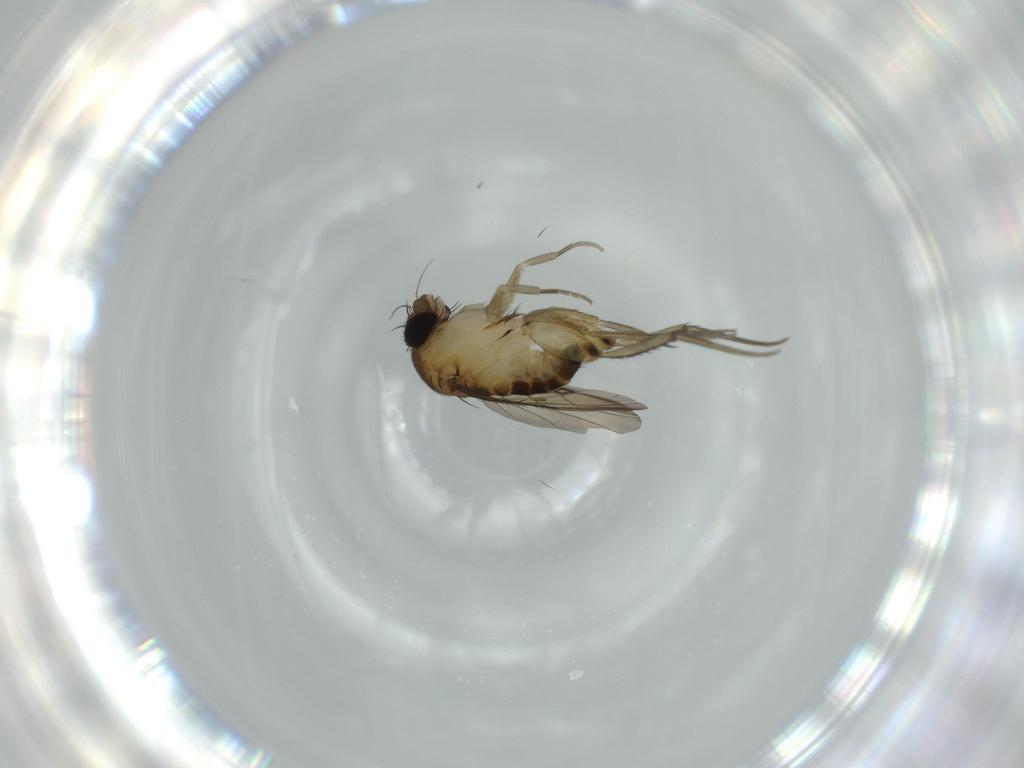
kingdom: Animalia
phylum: Arthropoda
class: Insecta
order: Diptera
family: Phoridae
